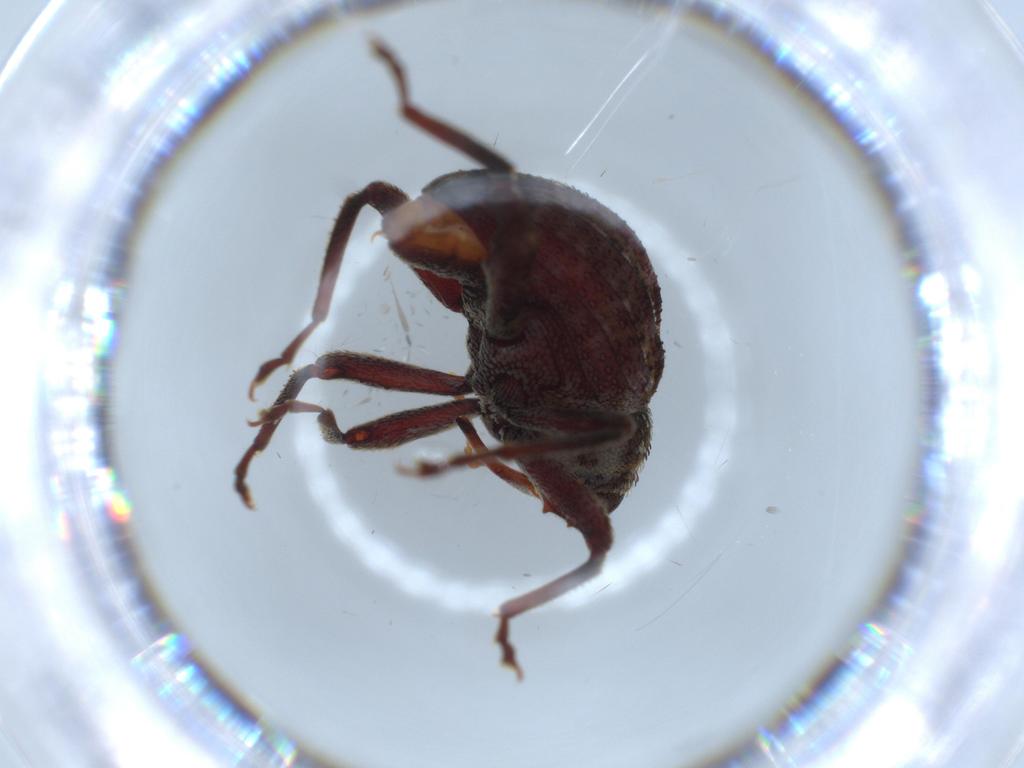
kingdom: Animalia
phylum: Arthropoda
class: Insecta
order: Coleoptera
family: Curculionidae
